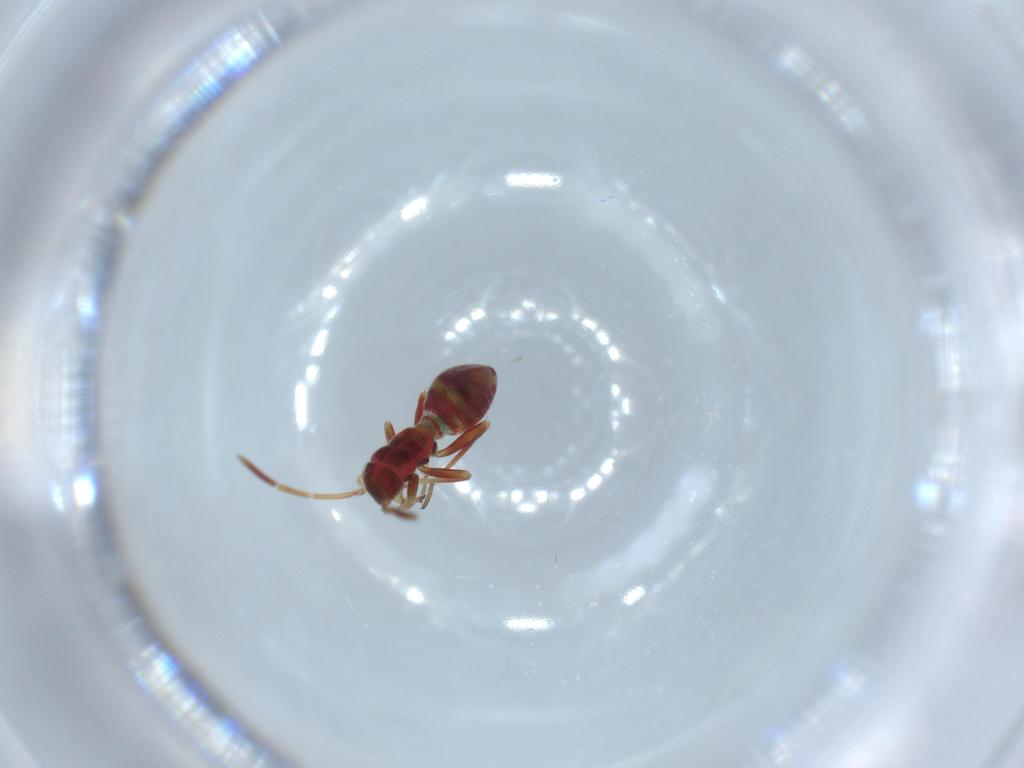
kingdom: Animalia
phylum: Arthropoda
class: Insecta
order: Hemiptera
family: Miridae
